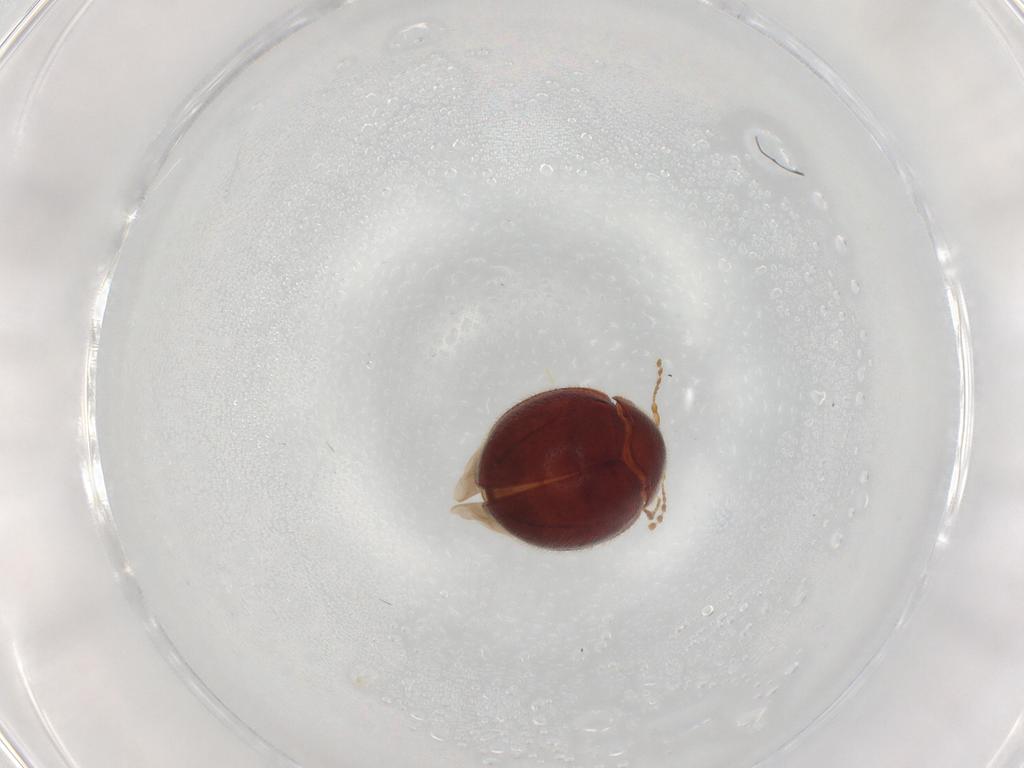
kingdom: Animalia
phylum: Arthropoda
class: Insecta
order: Coleoptera
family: Anamorphidae
